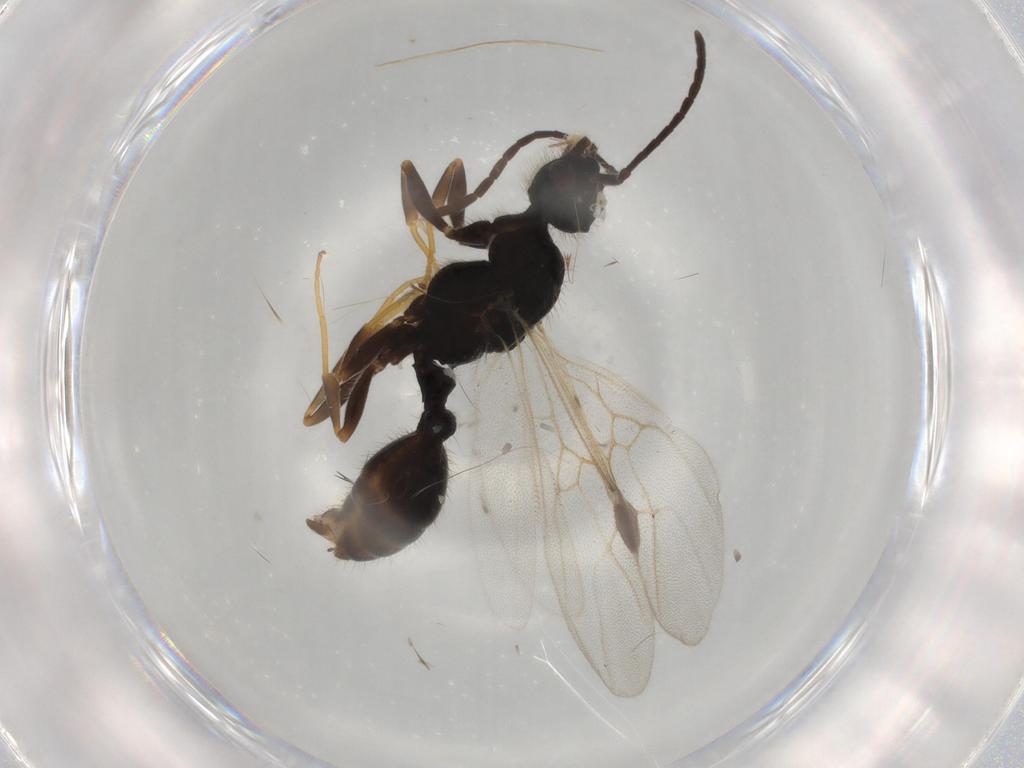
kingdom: Animalia
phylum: Arthropoda
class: Insecta
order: Hymenoptera
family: Formicidae
